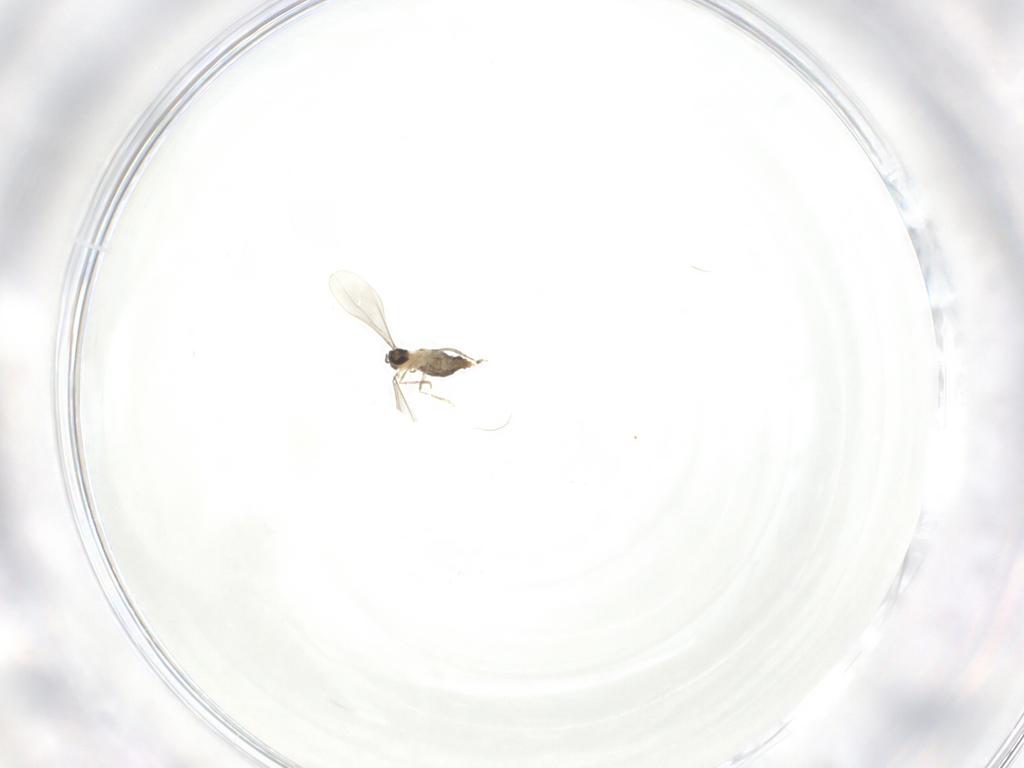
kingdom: Animalia
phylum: Arthropoda
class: Insecta
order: Diptera
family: Cecidomyiidae
